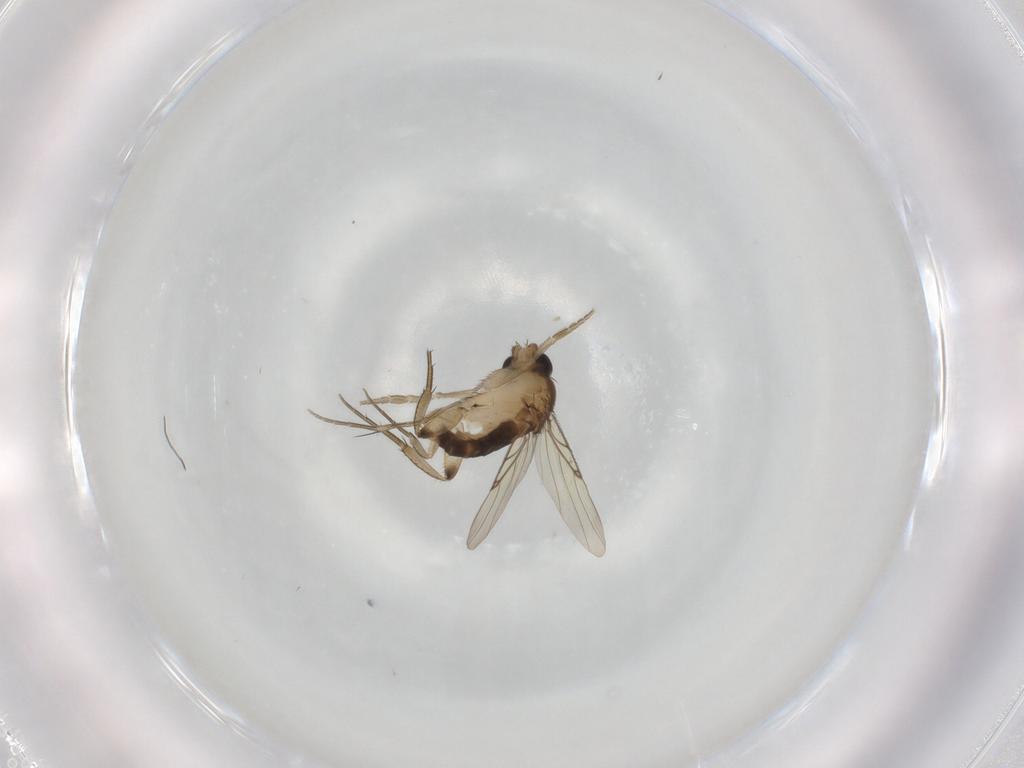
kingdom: Animalia
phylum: Arthropoda
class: Insecta
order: Diptera
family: Phoridae
